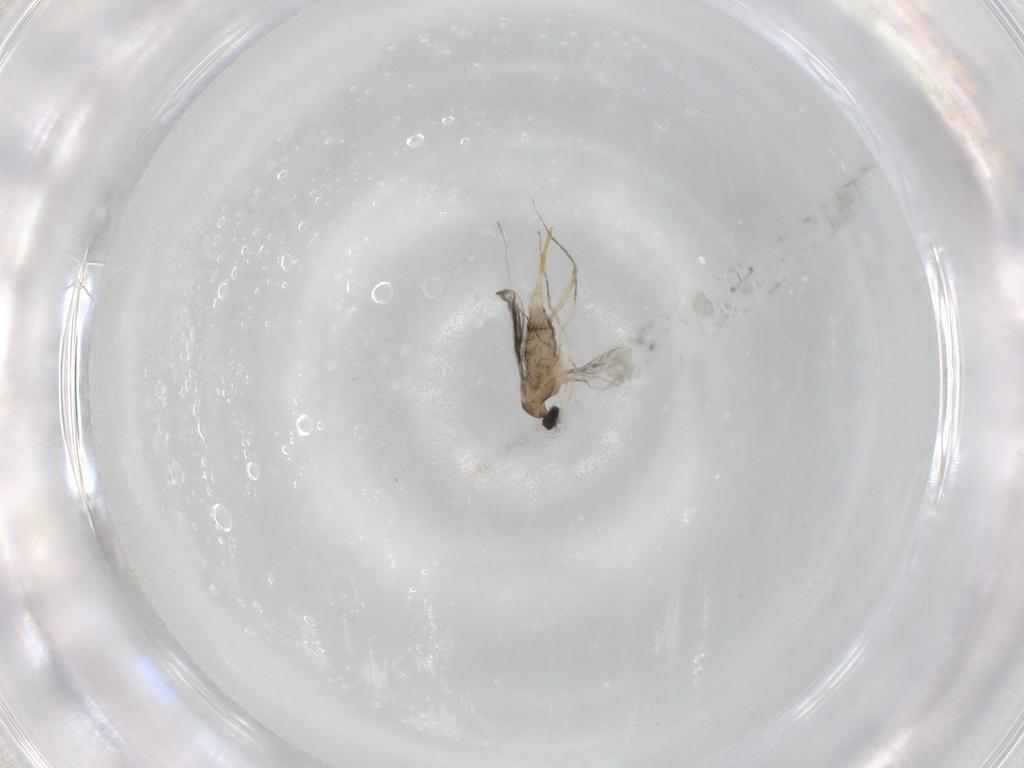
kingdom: Animalia
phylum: Arthropoda
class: Insecta
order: Diptera
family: Cecidomyiidae
